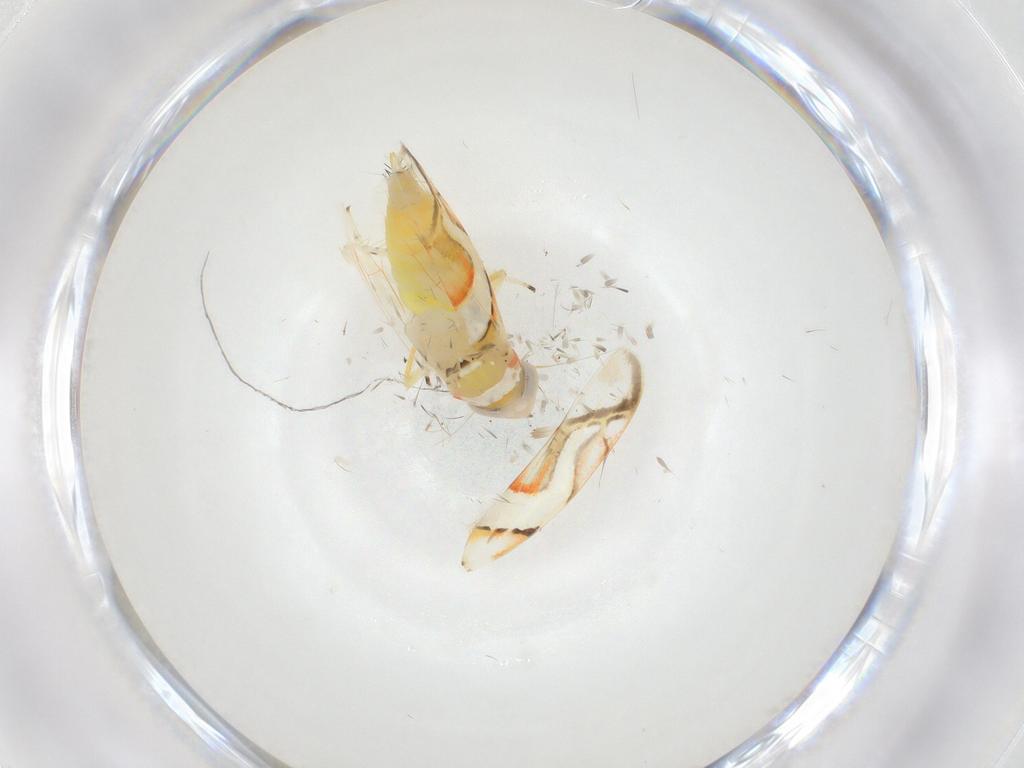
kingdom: Animalia
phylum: Arthropoda
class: Insecta
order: Hemiptera
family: Cicadellidae
